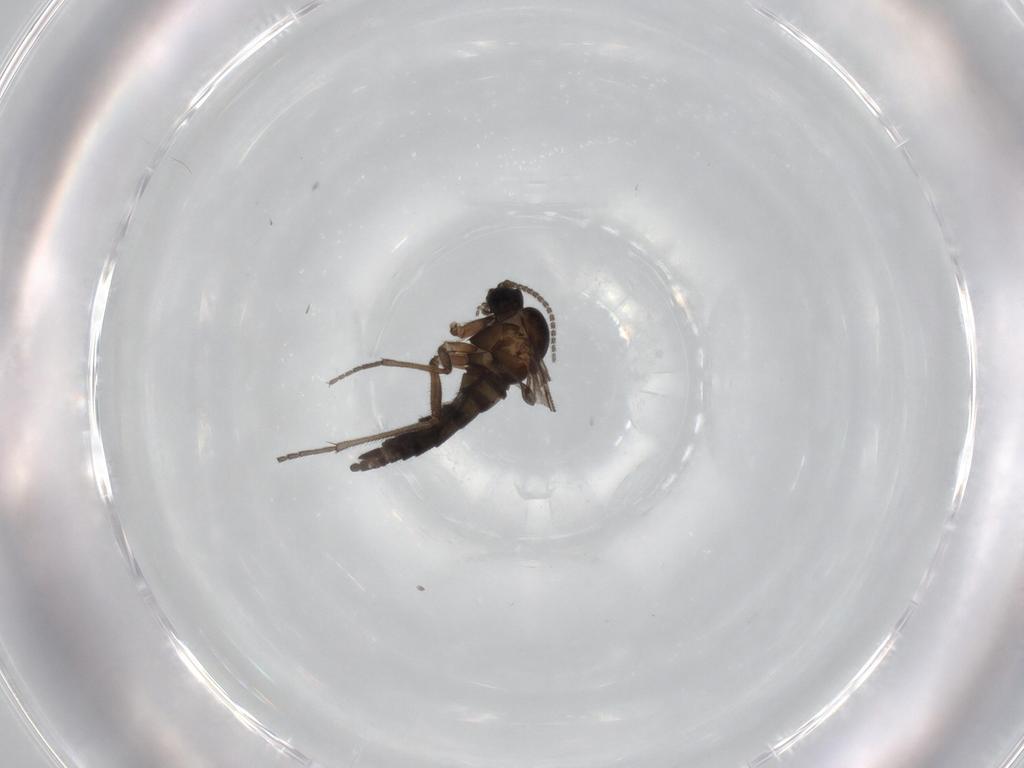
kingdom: Animalia
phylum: Arthropoda
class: Insecta
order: Diptera
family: Sciaridae
